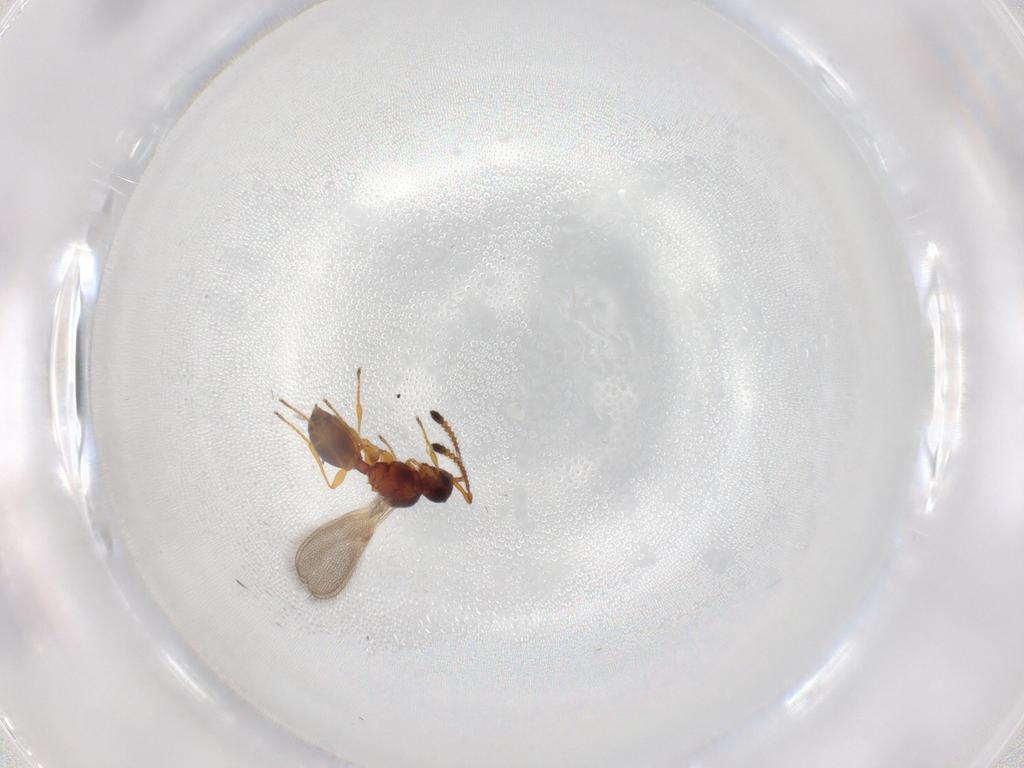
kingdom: Animalia
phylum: Arthropoda
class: Insecta
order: Hymenoptera
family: Diapriidae
